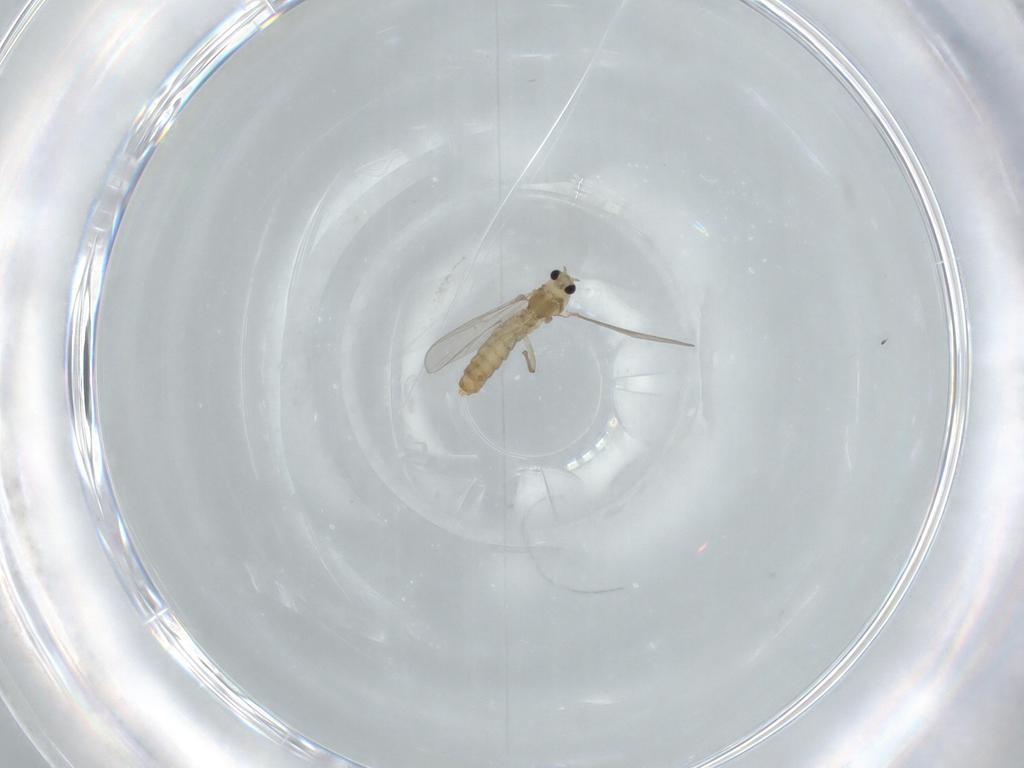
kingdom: Animalia
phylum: Arthropoda
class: Insecta
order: Diptera
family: Chironomidae
